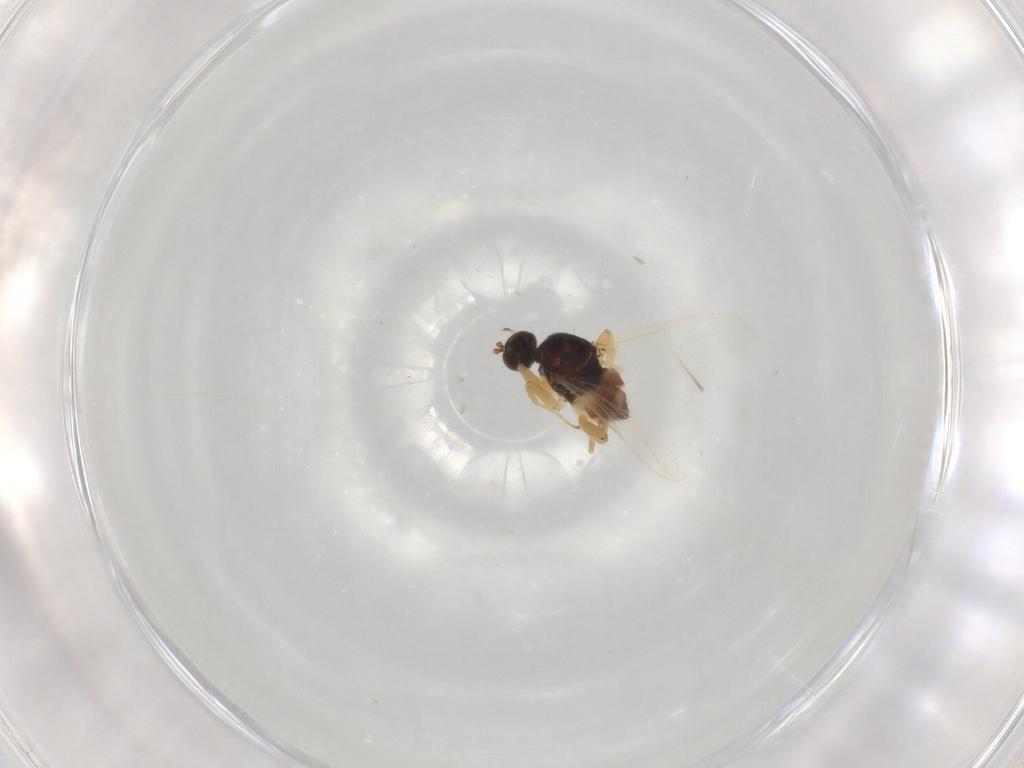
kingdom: Animalia
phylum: Arthropoda
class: Insecta
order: Diptera
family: Hybotidae
